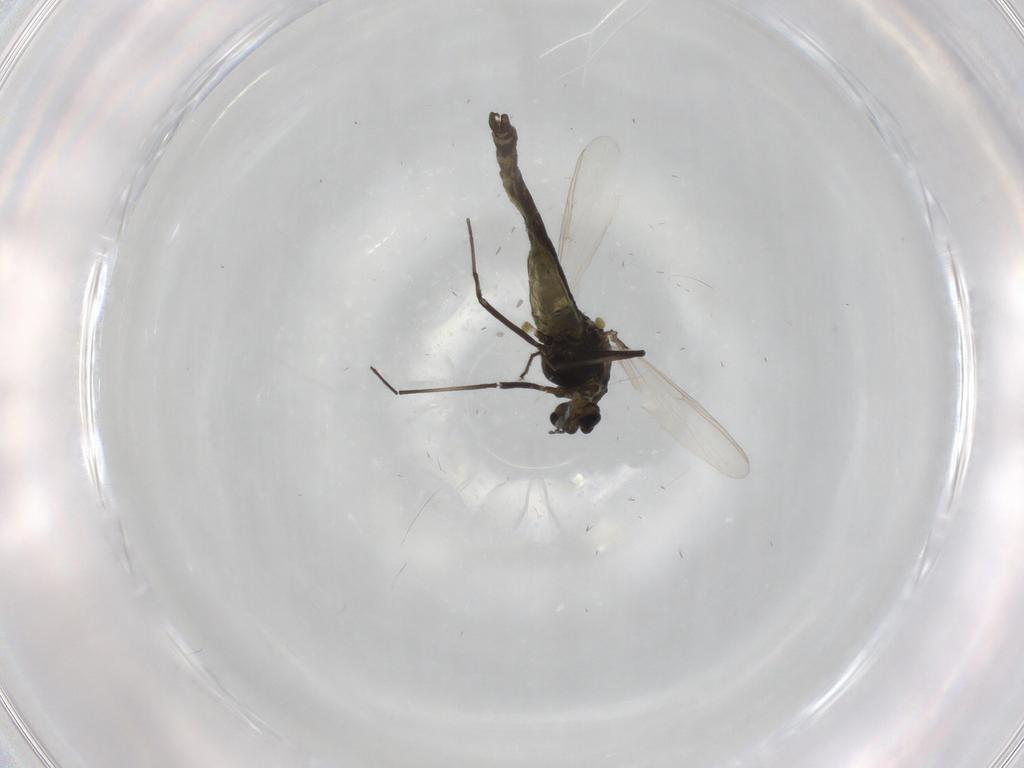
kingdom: Animalia
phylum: Arthropoda
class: Insecta
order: Diptera
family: Chironomidae
